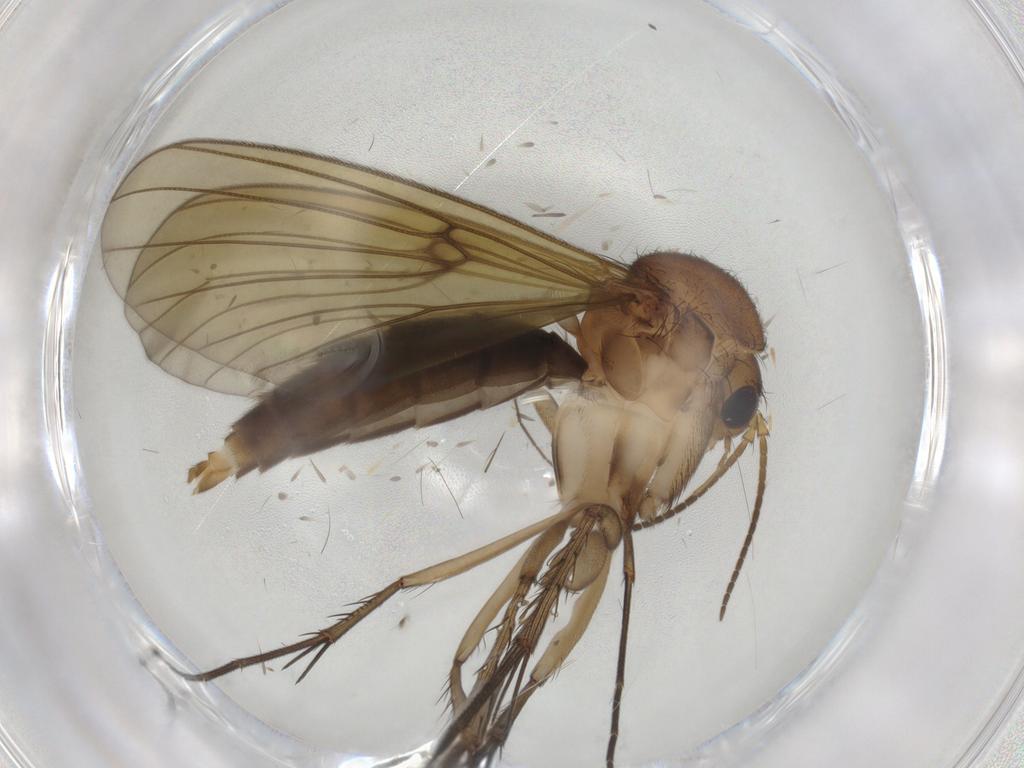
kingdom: Animalia
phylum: Arthropoda
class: Insecta
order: Diptera
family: Mycetophilidae
